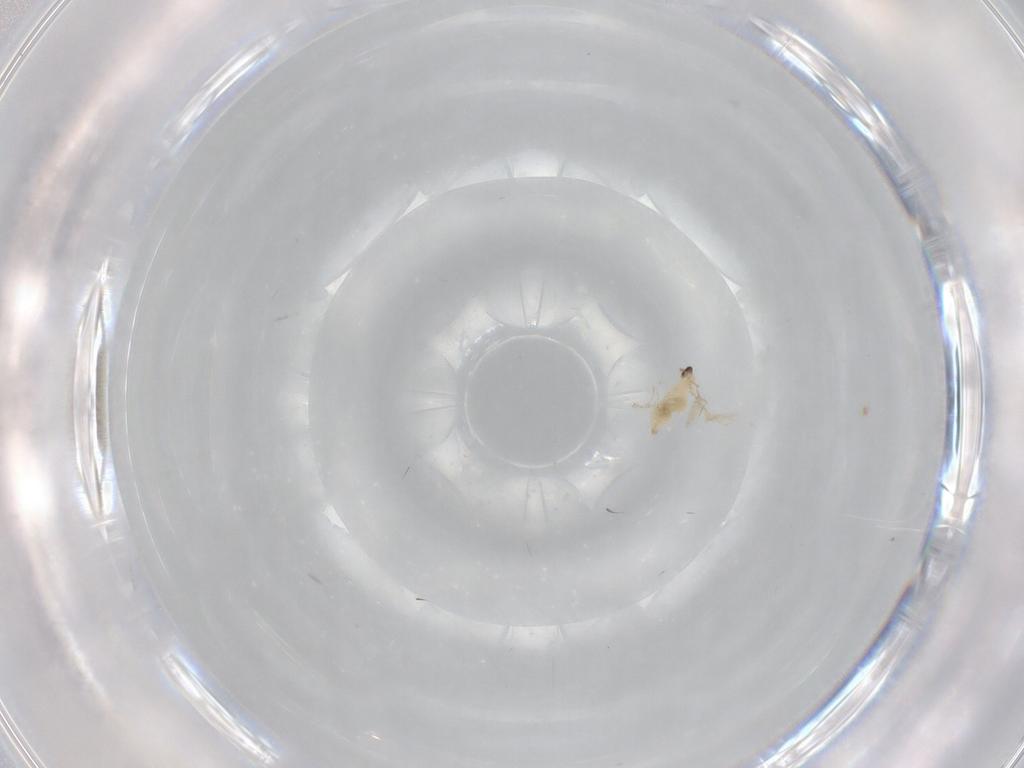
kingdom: Animalia
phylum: Arthropoda
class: Insecta
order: Diptera
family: Cecidomyiidae
